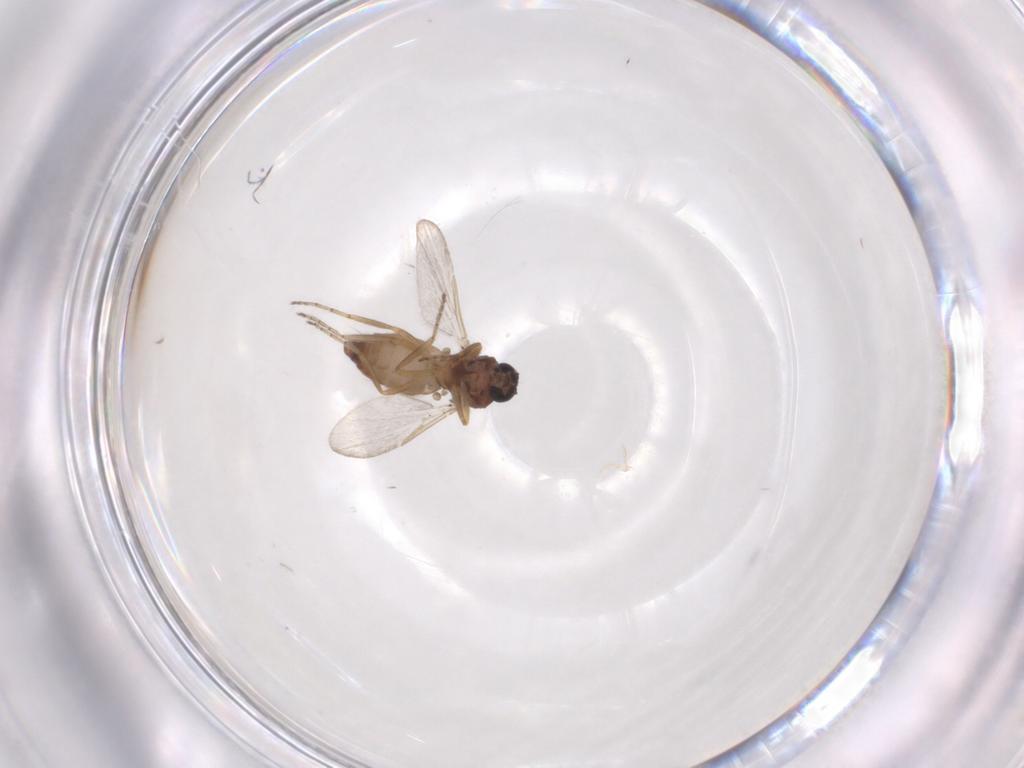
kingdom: Animalia
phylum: Arthropoda
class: Insecta
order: Diptera
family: Ceratopogonidae
